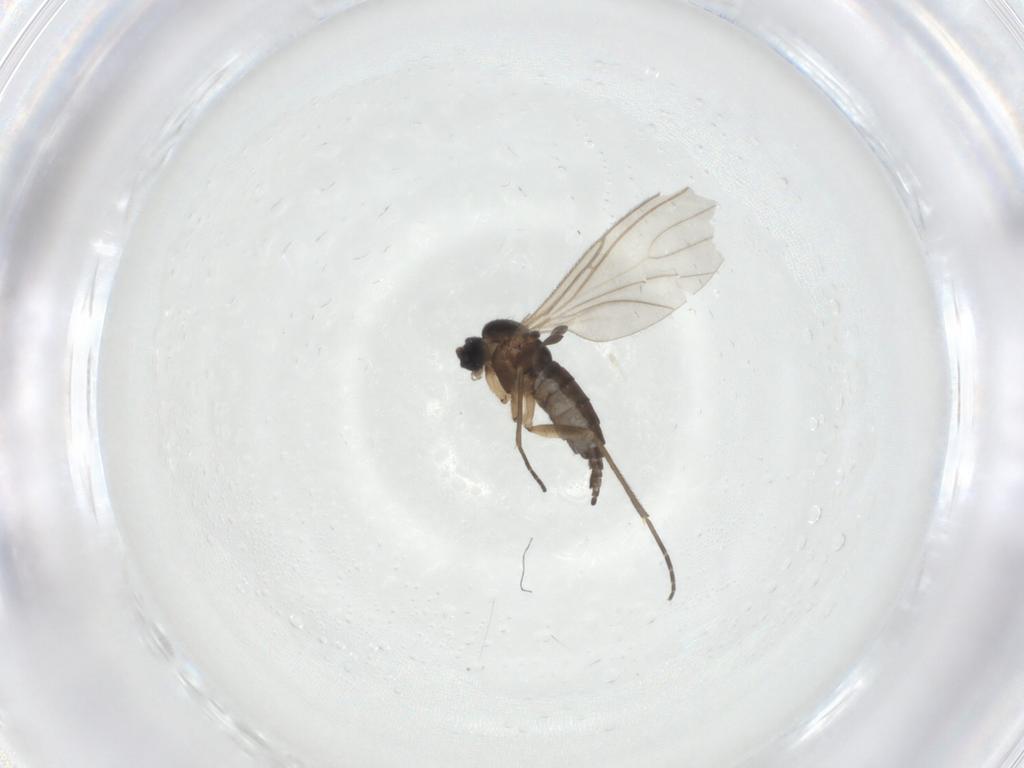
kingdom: Animalia
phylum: Arthropoda
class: Insecta
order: Diptera
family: Sciaridae
